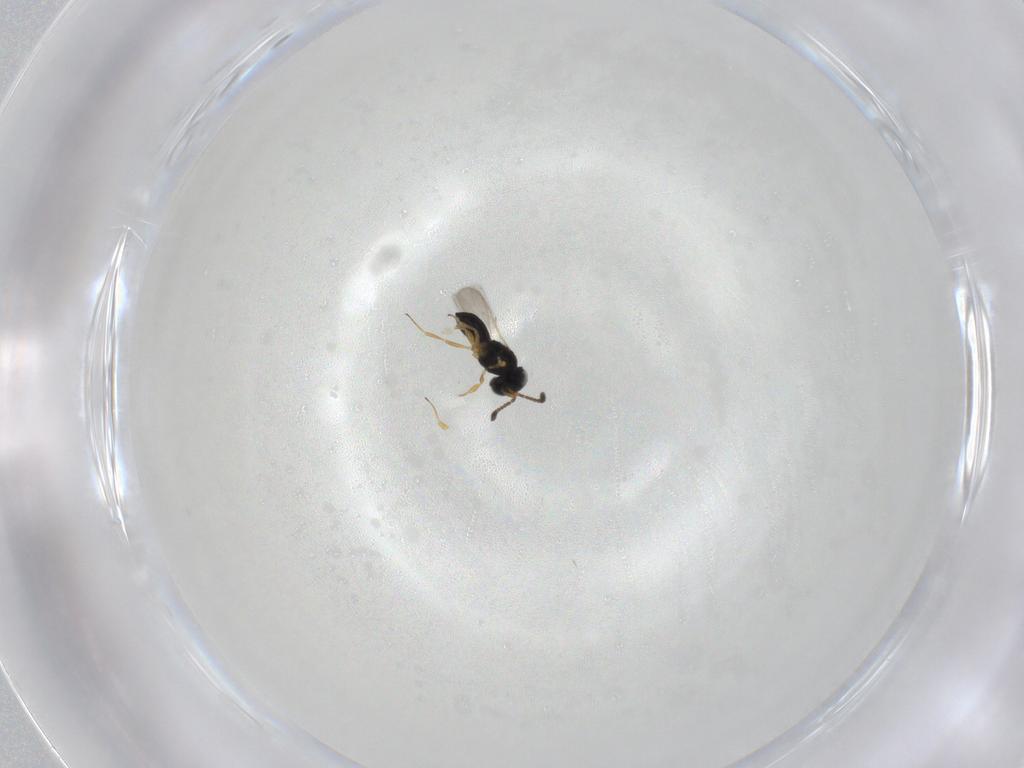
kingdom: Animalia
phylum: Arthropoda
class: Insecta
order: Hymenoptera
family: Scelionidae
